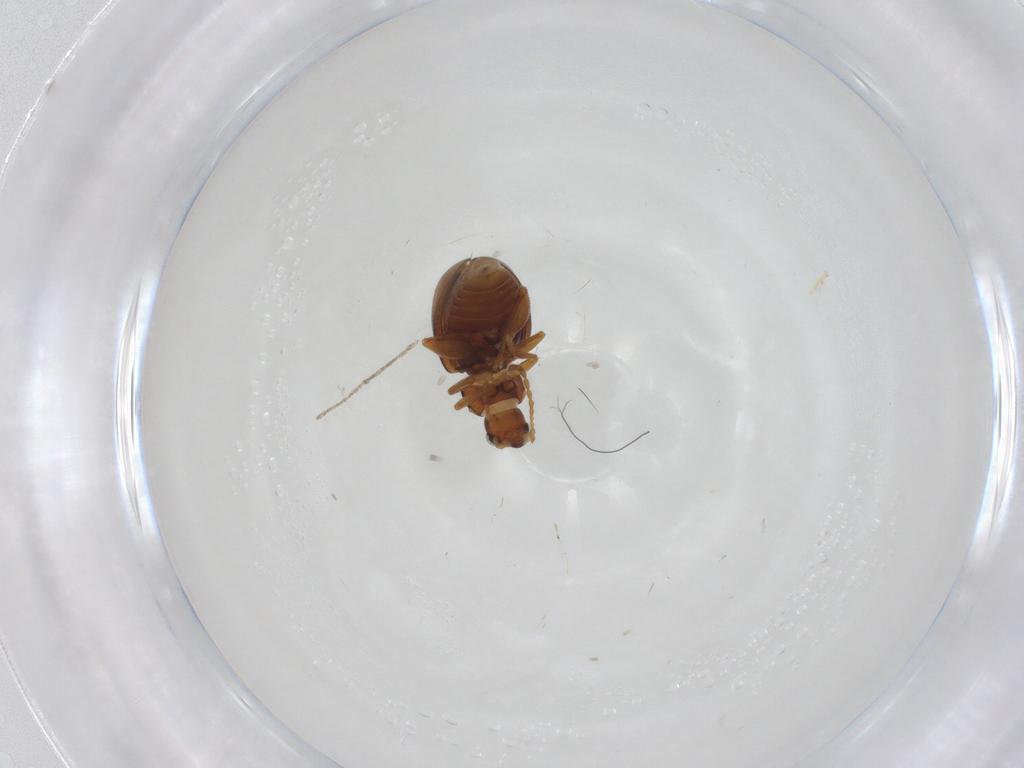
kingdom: Animalia
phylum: Arthropoda
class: Insecta
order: Coleoptera
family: Chrysomelidae
